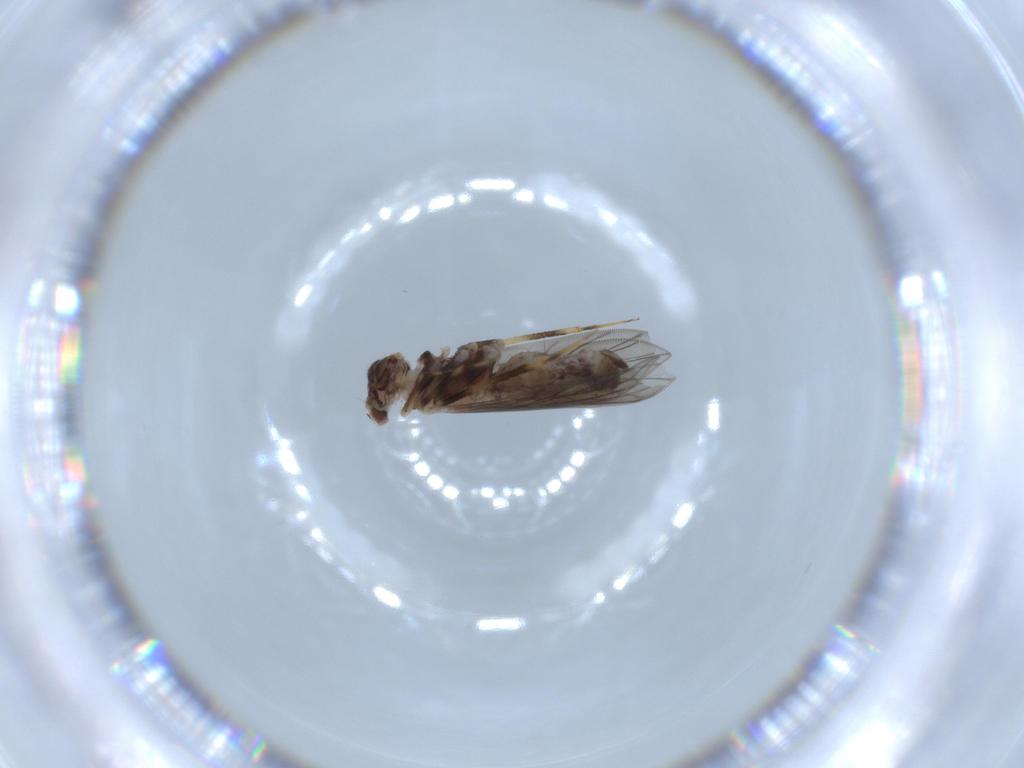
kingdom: Animalia
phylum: Arthropoda
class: Insecta
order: Psocodea
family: Lepidopsocidae
